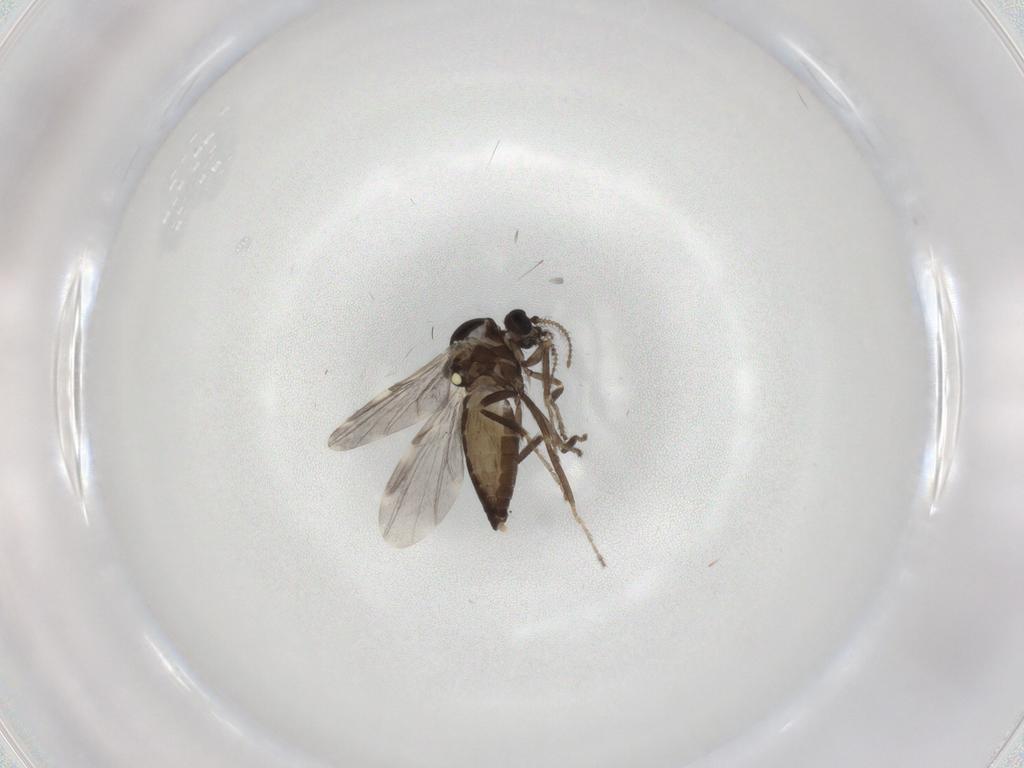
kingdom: Animalia
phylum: Arthropoda
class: Insecta
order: Diptera
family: Ceratopogonidae
